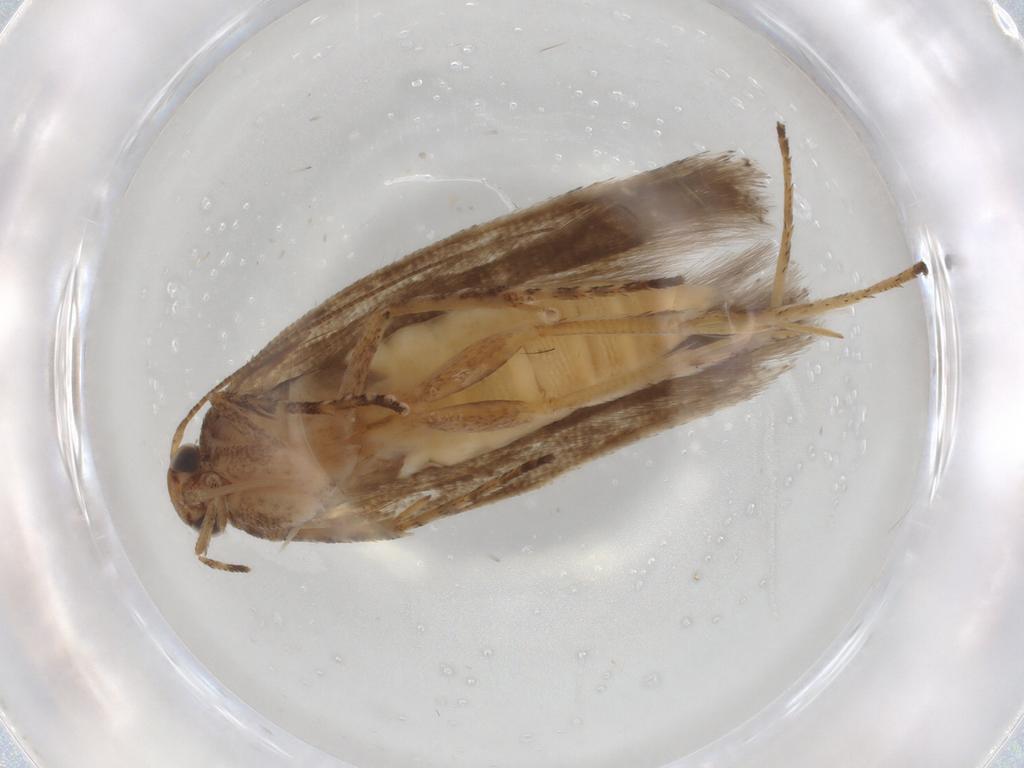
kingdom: Animalia
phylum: Arthropoda
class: Insecta
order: Lepidoptera
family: Gelechiidae
